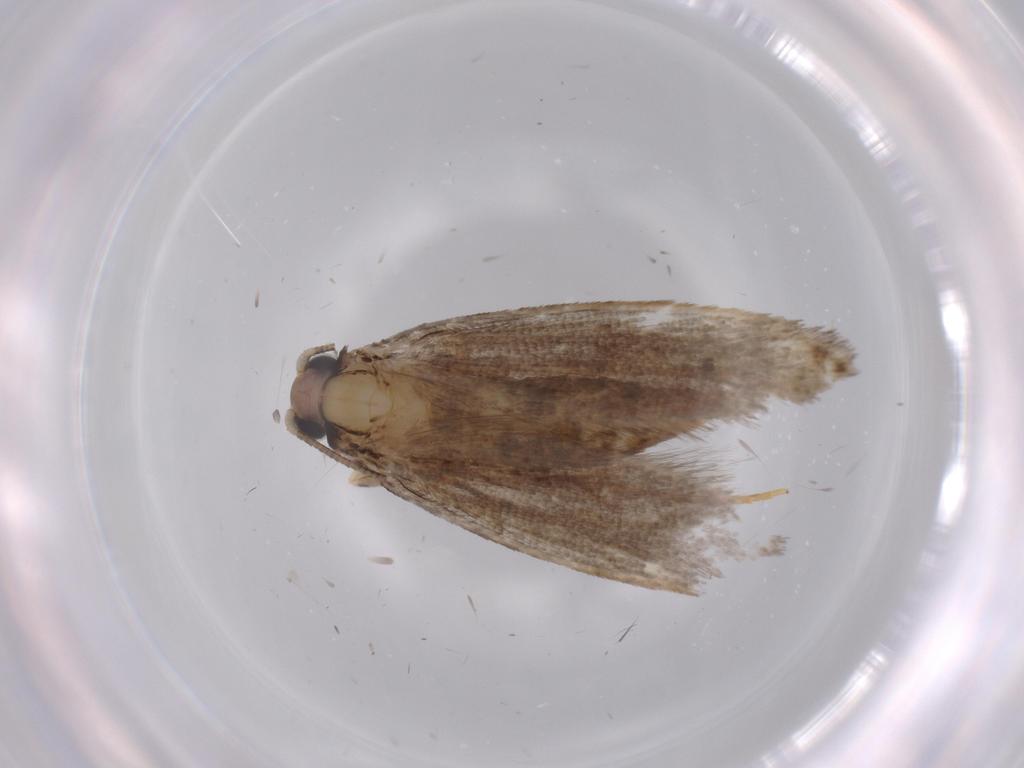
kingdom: Animalia
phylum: Arthropoda
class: Insecta
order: Lepidoptera
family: Tineidae
